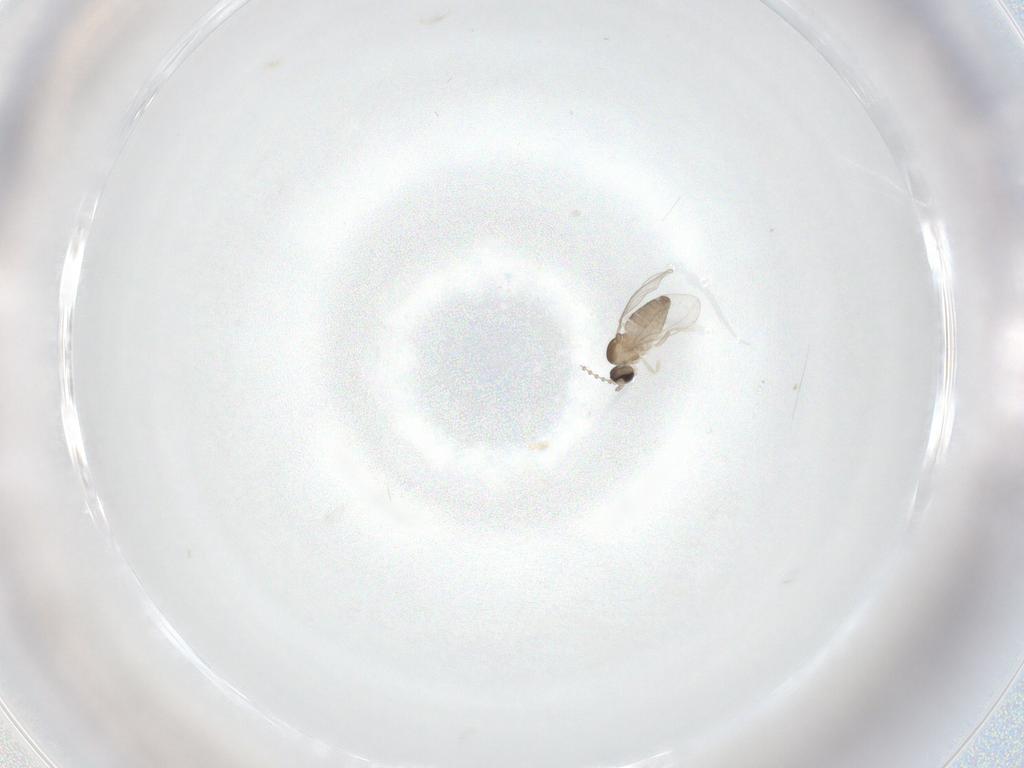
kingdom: Animalia
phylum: Arthropoda
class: Insecta
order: Diptera
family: Cecidomyiidae
